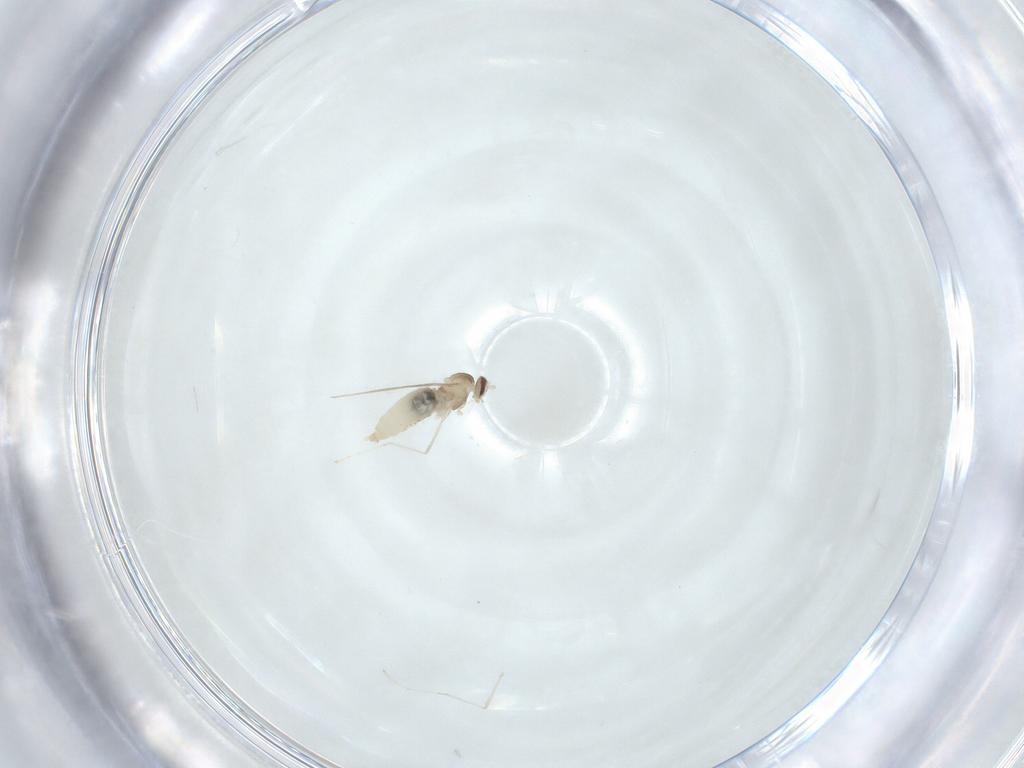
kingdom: Animalia
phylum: Arthropoda
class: Insecta
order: Diptera
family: Cecidomyiidae
